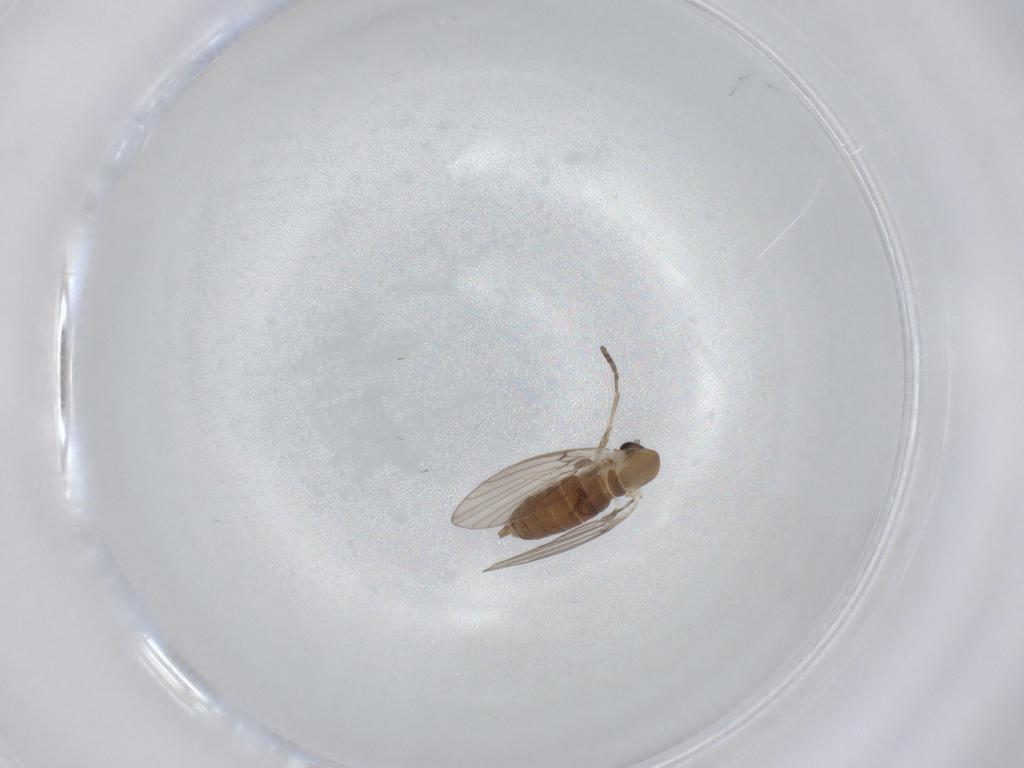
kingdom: Animalia
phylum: Arthropoda
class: Insecta
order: Diptera
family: Psychodidae
